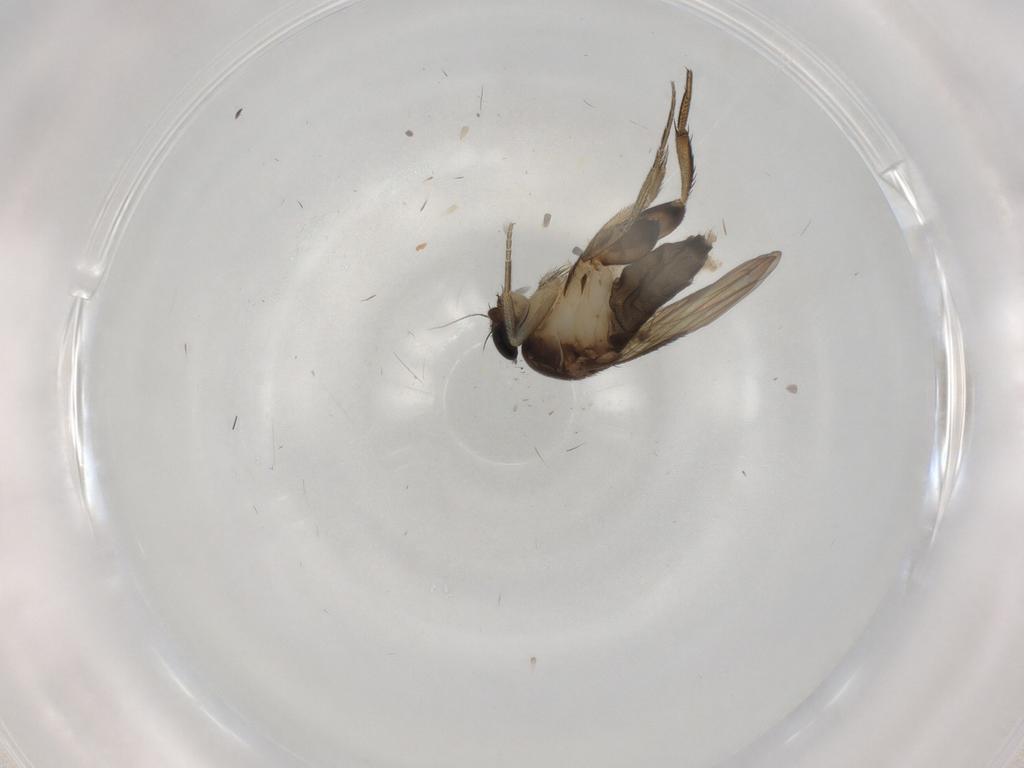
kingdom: Animalia
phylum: Arthropoda
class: Insecta
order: Diptera
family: Phoridae
